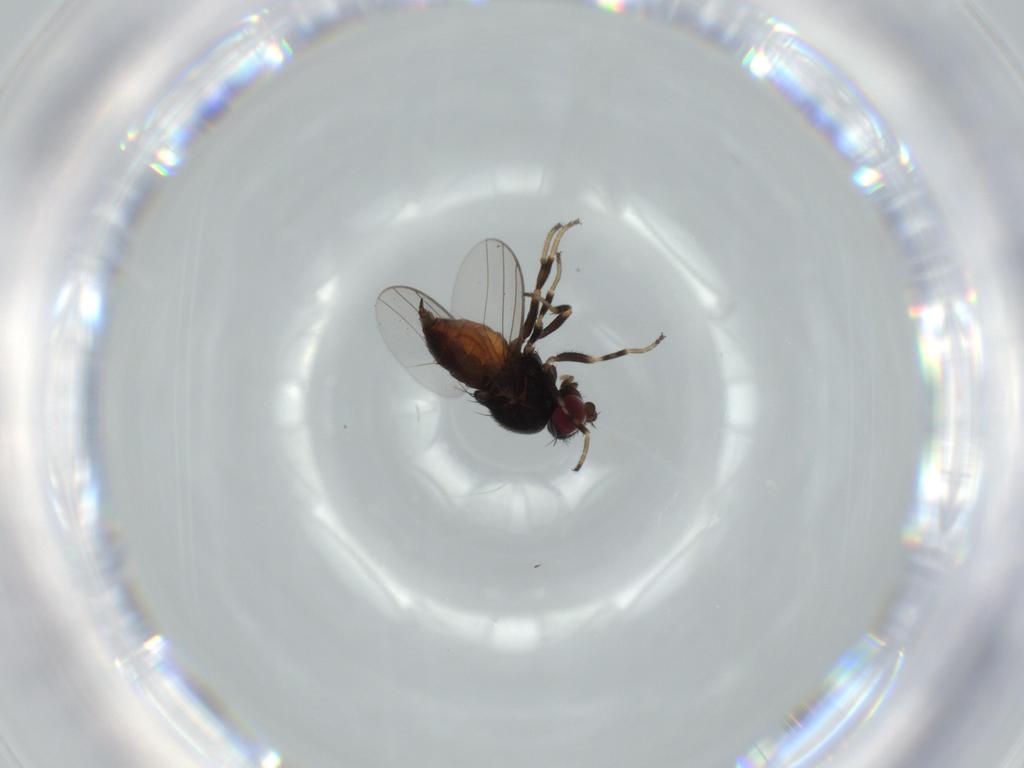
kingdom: Animalia
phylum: Arthropoda
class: Insecta
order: Diptera
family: Chloropidae
